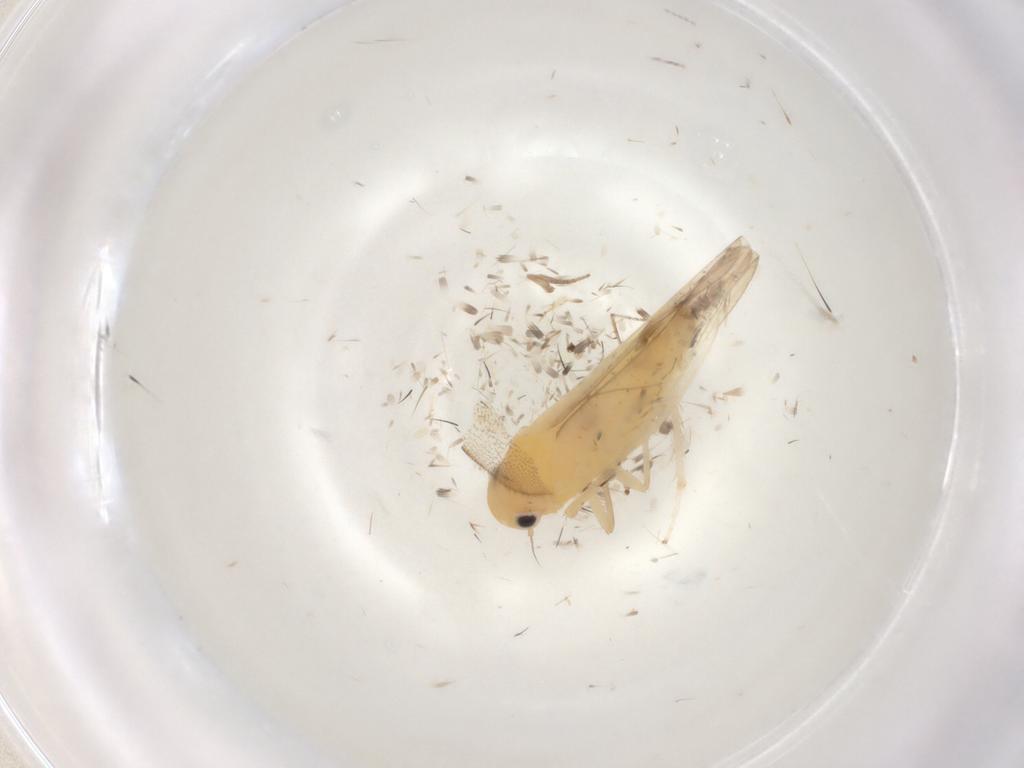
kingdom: Animalia
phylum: Arthropoda
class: Insecta
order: Hemiptera
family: Cicadellidae
